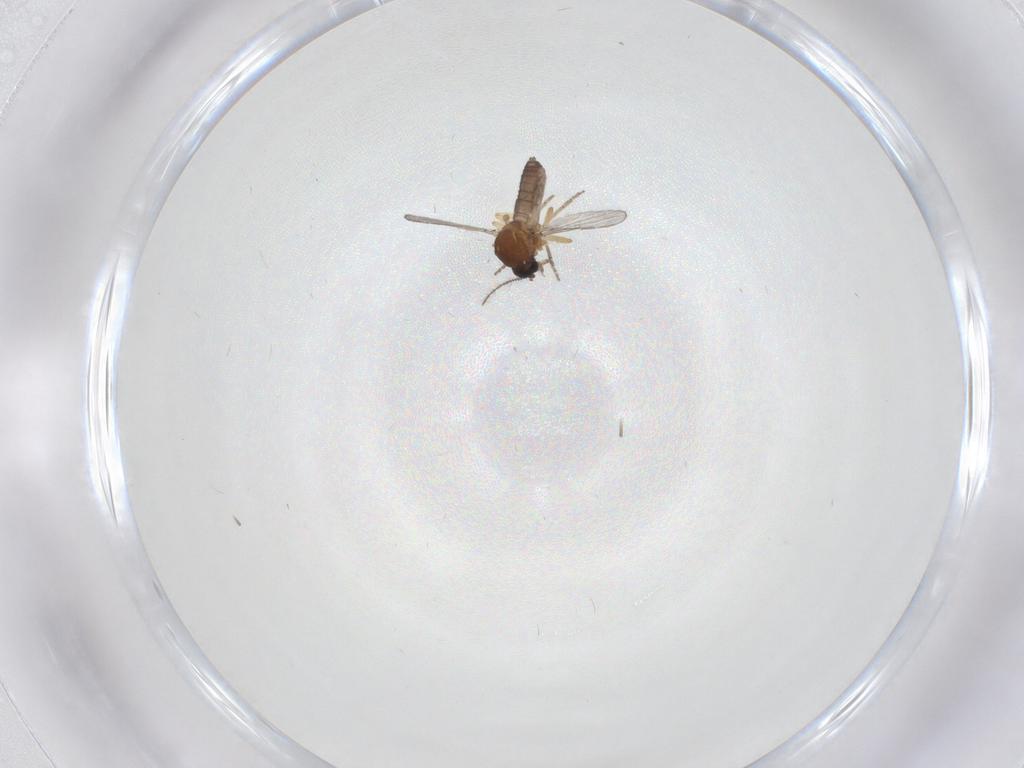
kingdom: Animalia
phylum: Arthropoda
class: Insecta
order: Diptera
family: Ceratopogonidae
